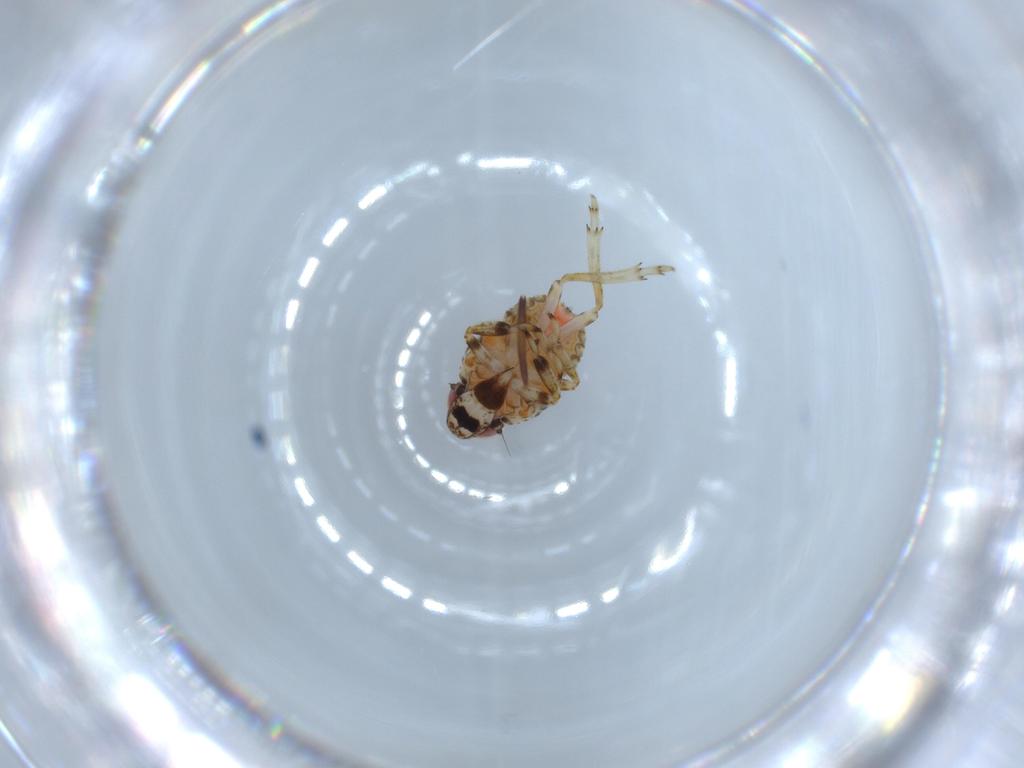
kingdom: Animalia
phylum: Arthropoda
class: Insecta
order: Hemiptera
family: Issidae
